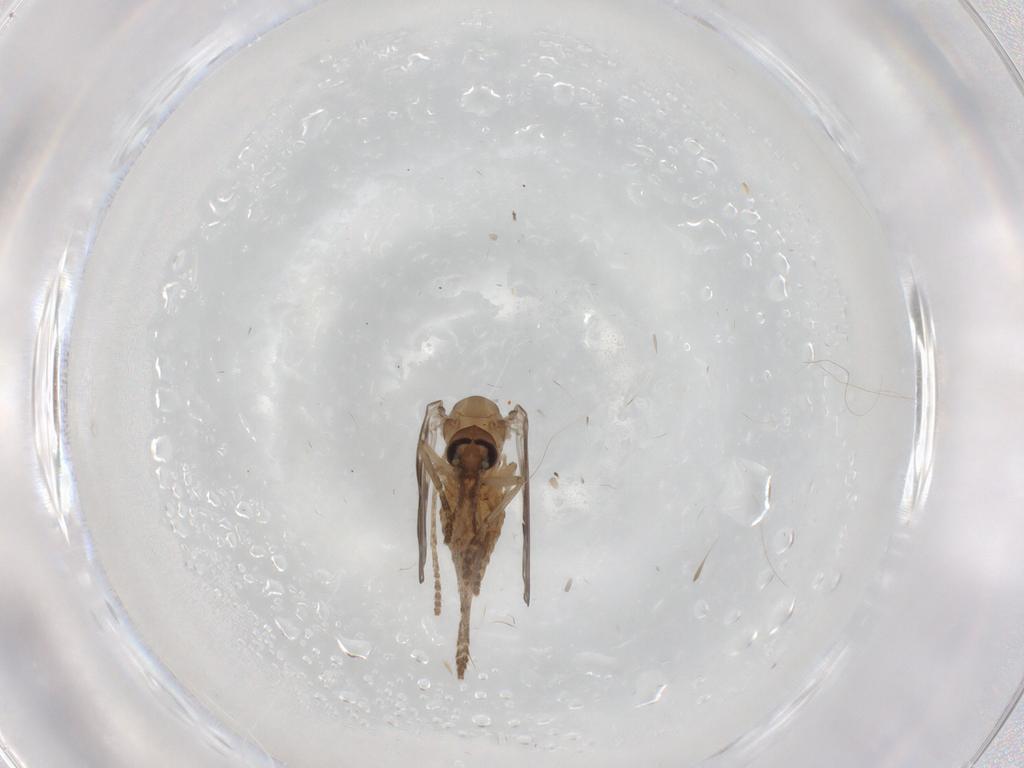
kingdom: Animalia
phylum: Arthropoda
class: Insecta
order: Diptera
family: Psychodidae
